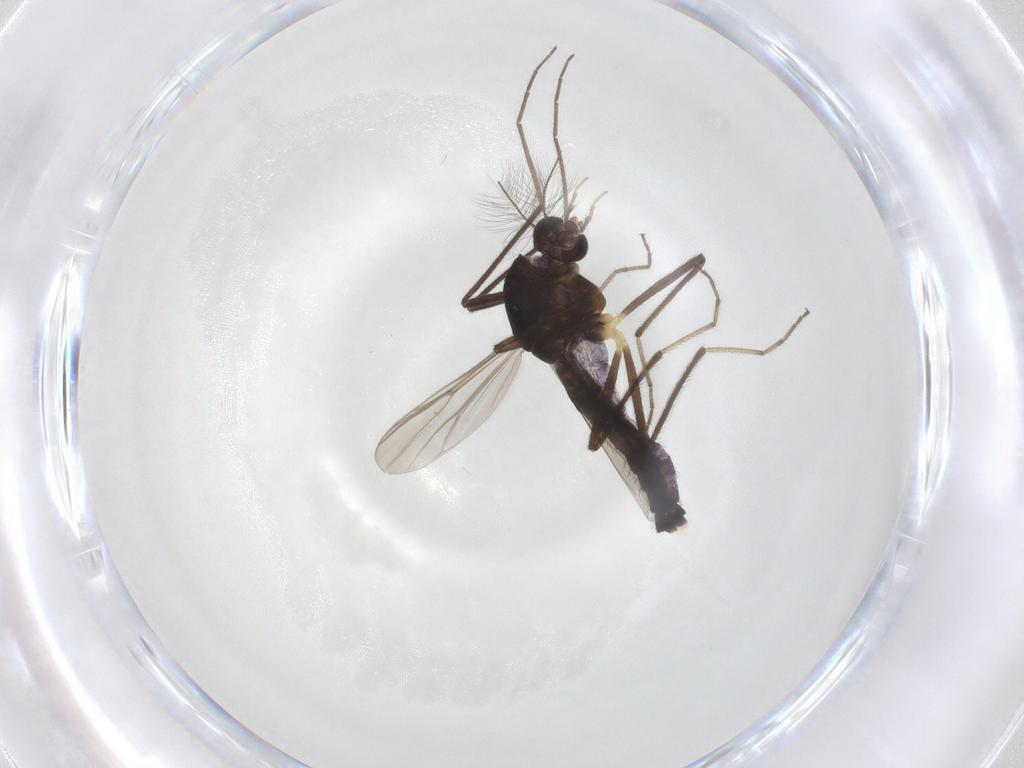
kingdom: Animalia
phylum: Arthropoda
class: Insecta
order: Diptera
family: Chironomidae
